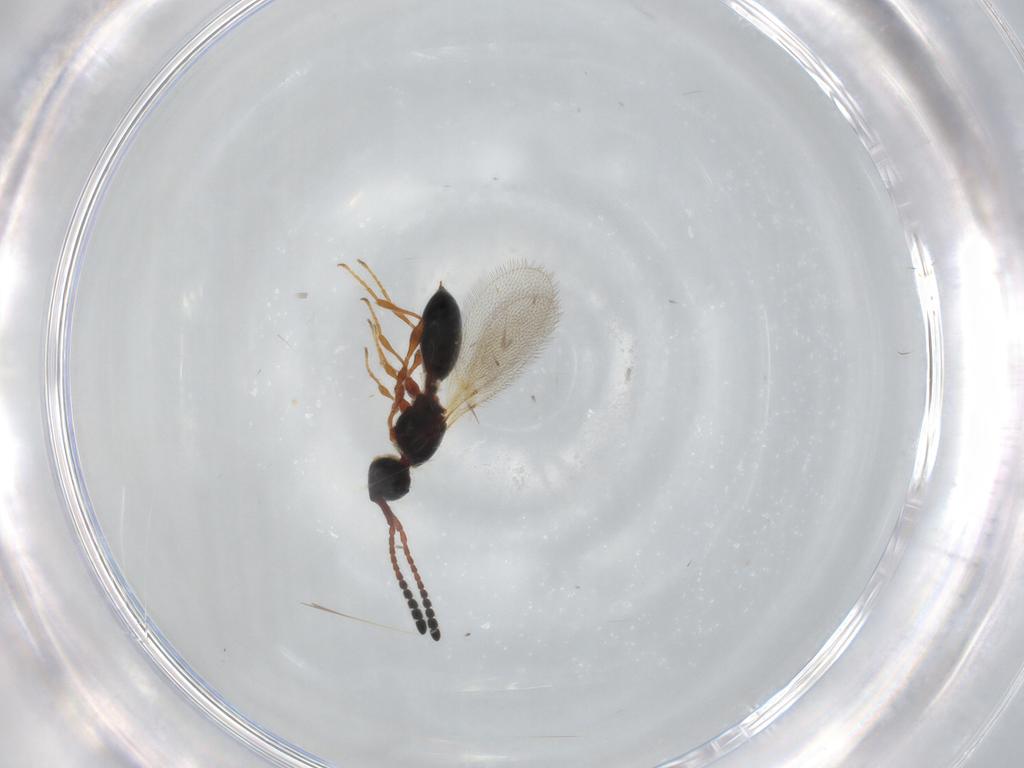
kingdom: Animalia
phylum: Arthropoda
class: Insecta
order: Hymenoptera
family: Diapriidae
